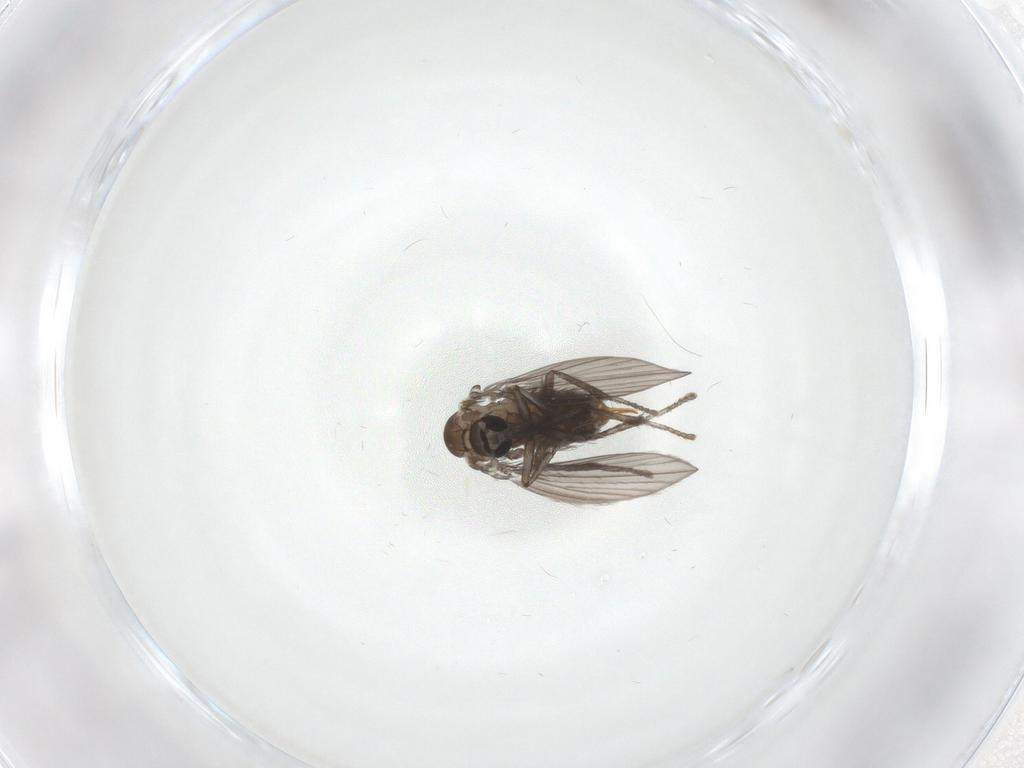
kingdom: Animalia
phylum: Arthropoda
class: Insecta
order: Diptera
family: Psychodidae
